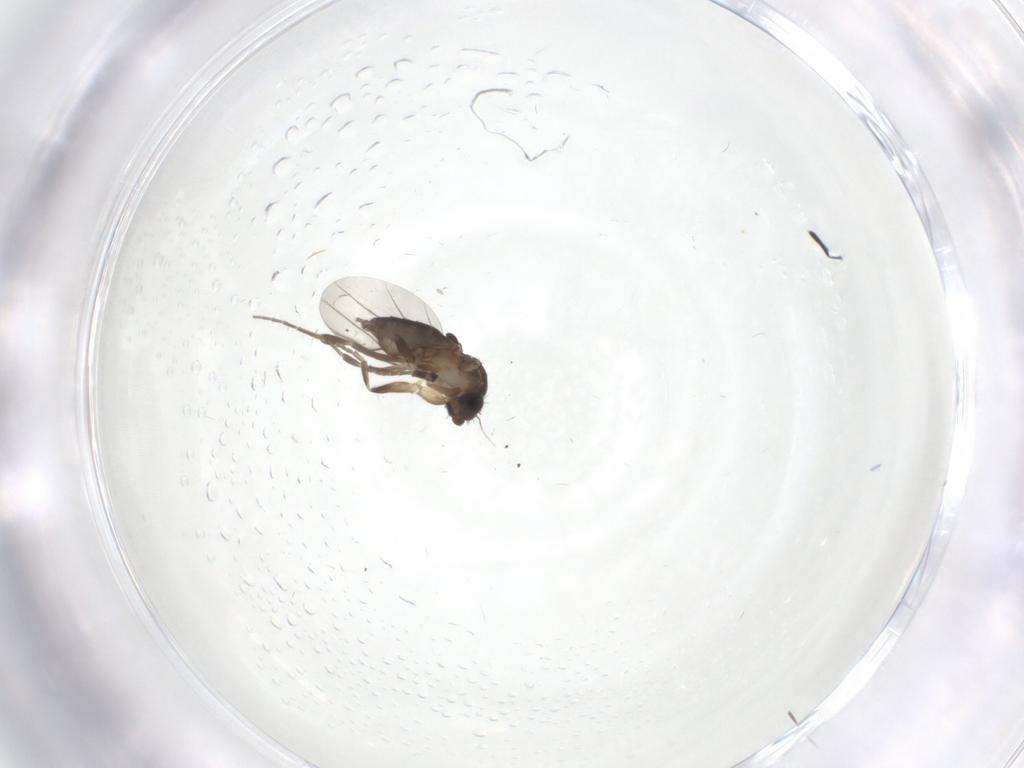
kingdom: Animalia
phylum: Arthropoda
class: Insecta
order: Diptera
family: Phoridae
